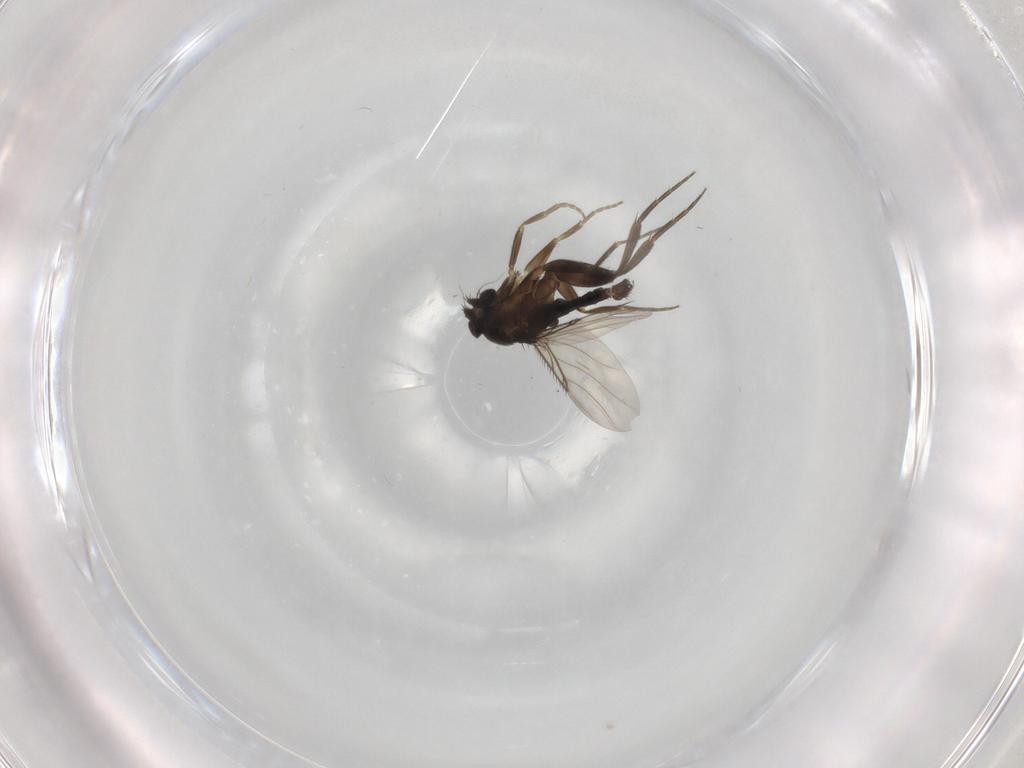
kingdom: Animalia
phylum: Arthropoda
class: Insecta
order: Diptera
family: Phoridae
